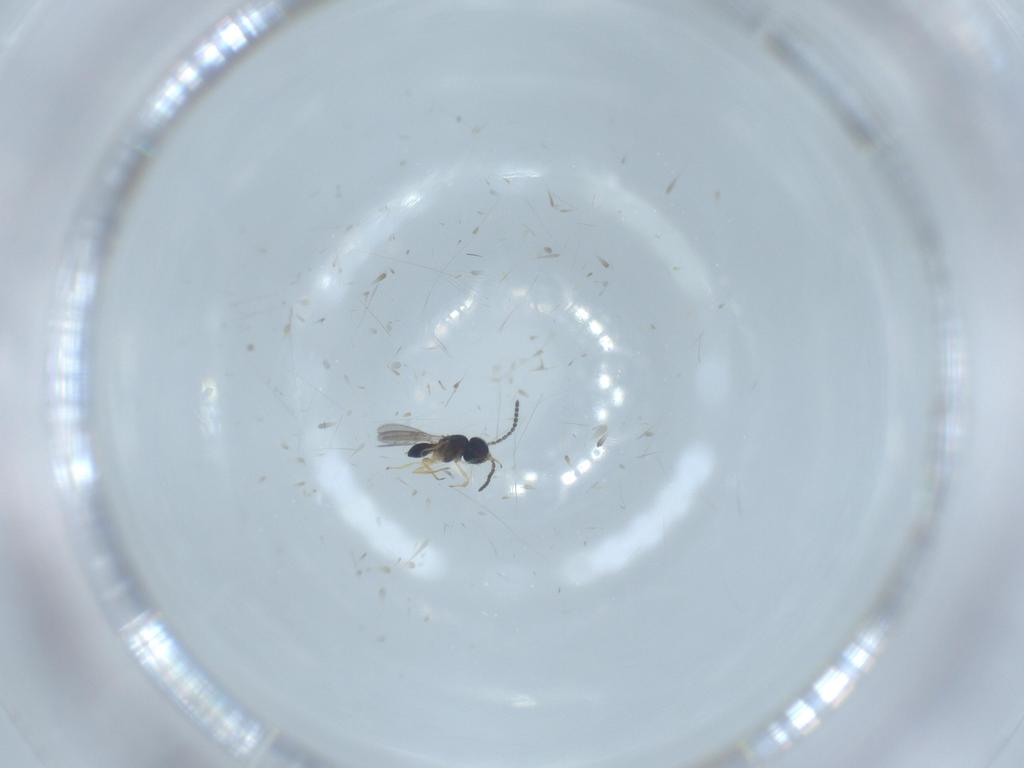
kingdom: Animalia
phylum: Arthropoda
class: Insecta
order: Hymenoptera
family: Scelionidae
